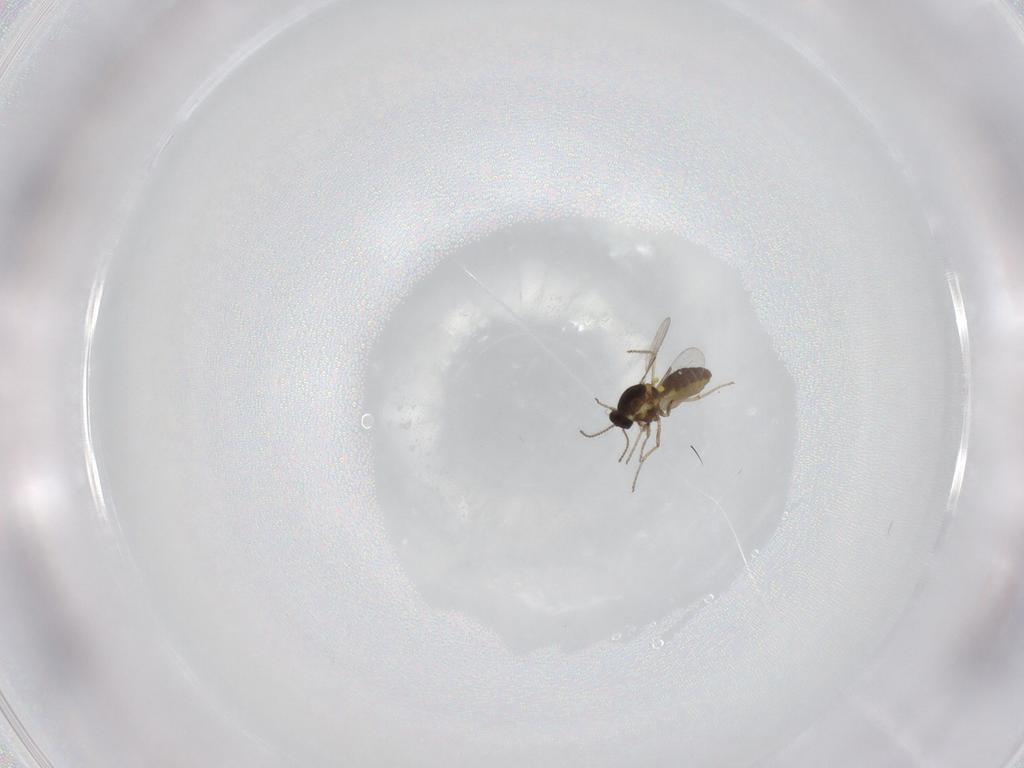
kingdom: Animalia
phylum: Arthropoda
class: Insecta
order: Diptera
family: Ceratopogonidae
